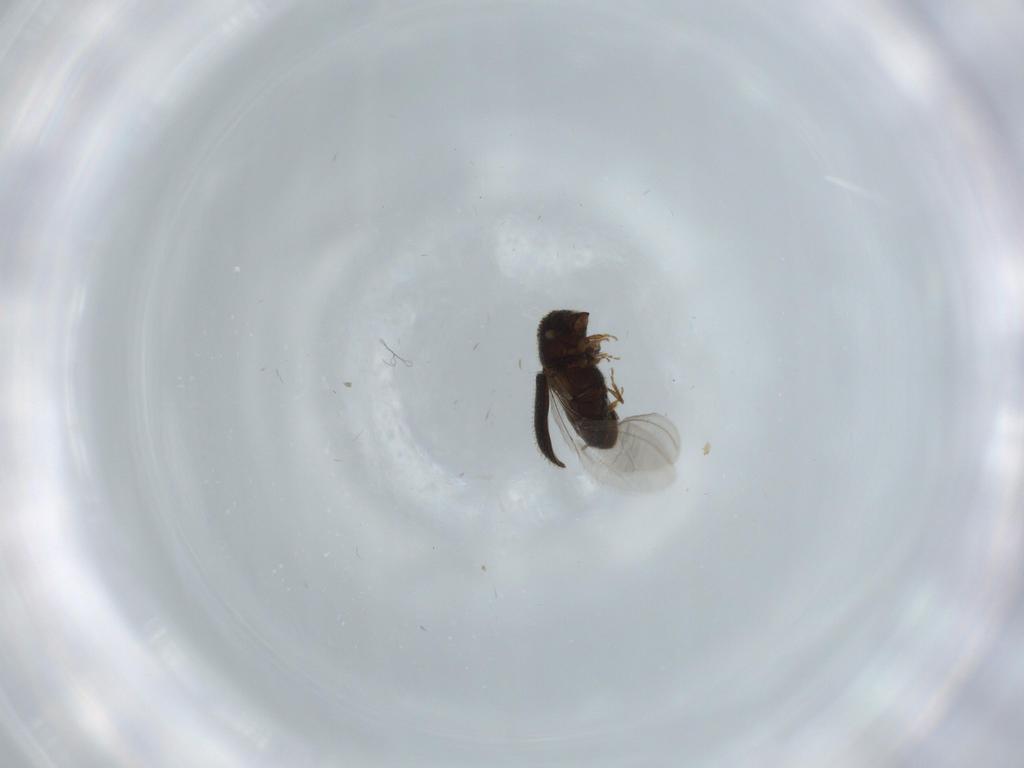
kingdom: Animalia
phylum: Arthropoda
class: Insecta
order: Coleoptera
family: Curculionidae
